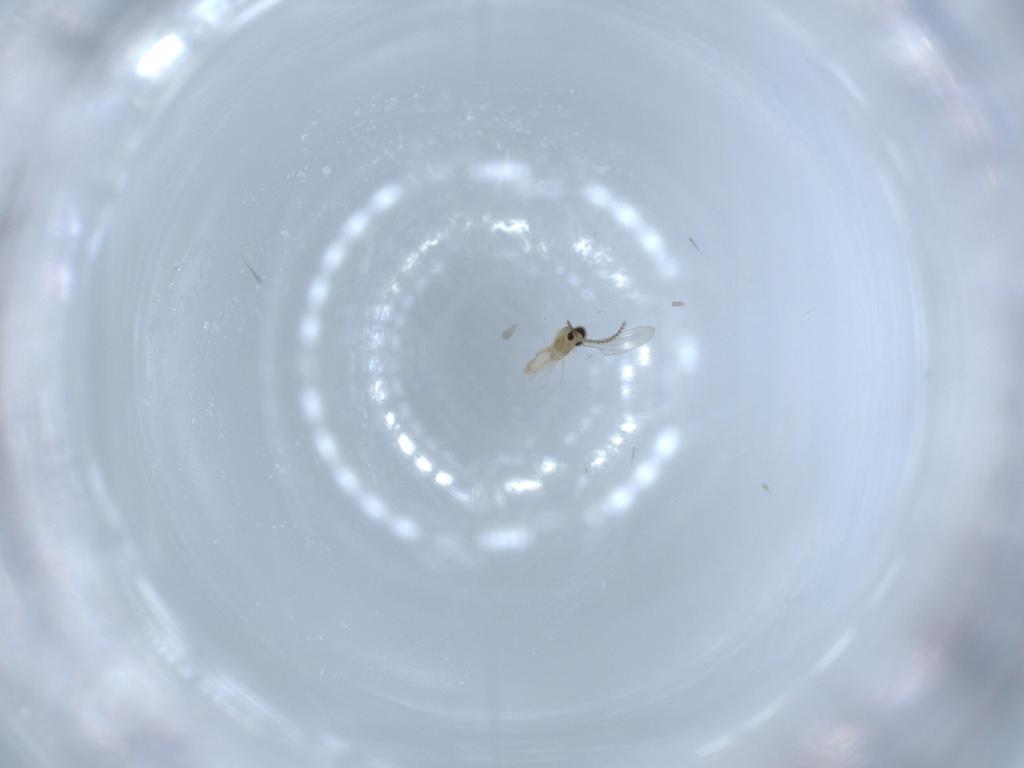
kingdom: Animalia
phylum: Arthropoda
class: Insecta
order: Diptera
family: Cecidomyiidae
